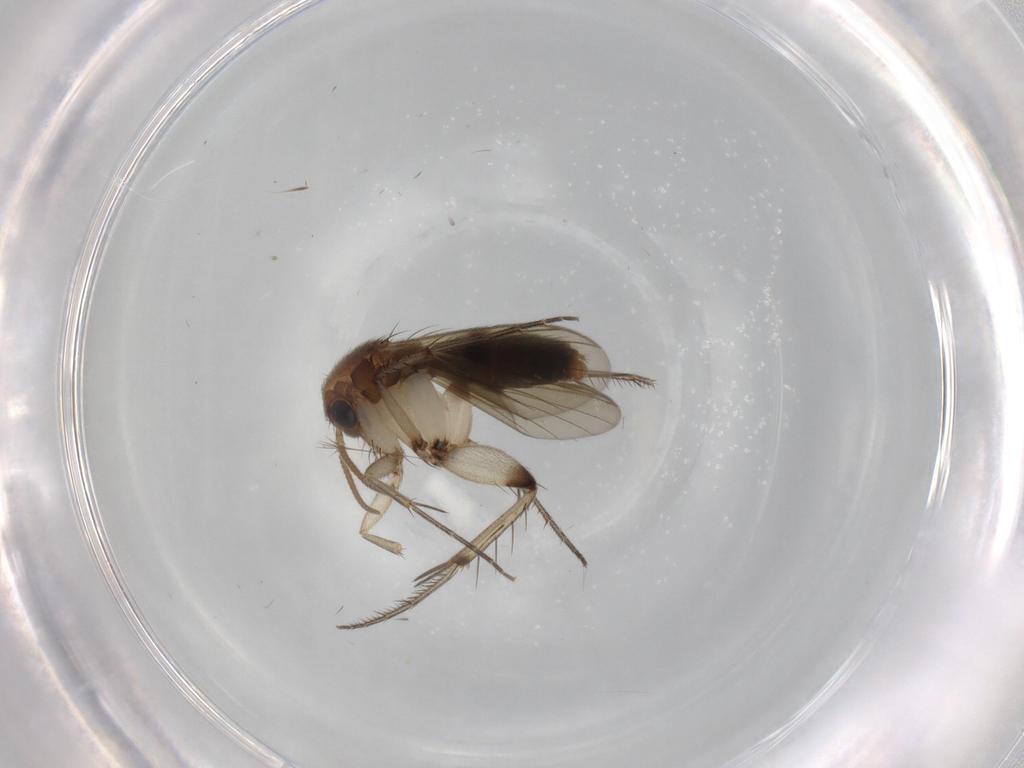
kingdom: Animalia
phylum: Arthropoda
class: Insecta
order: Diptera
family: Mycetophilidae
